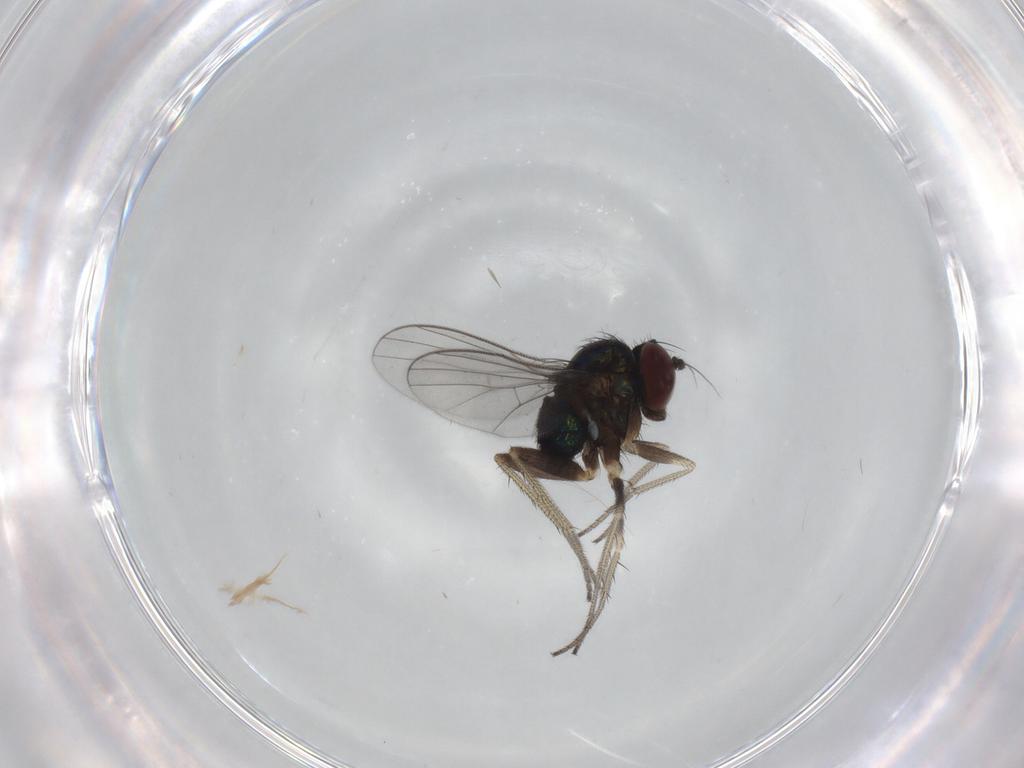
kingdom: Animalia
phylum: Arthropoda
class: Insecta
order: Diptera
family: Dolichopodidae
